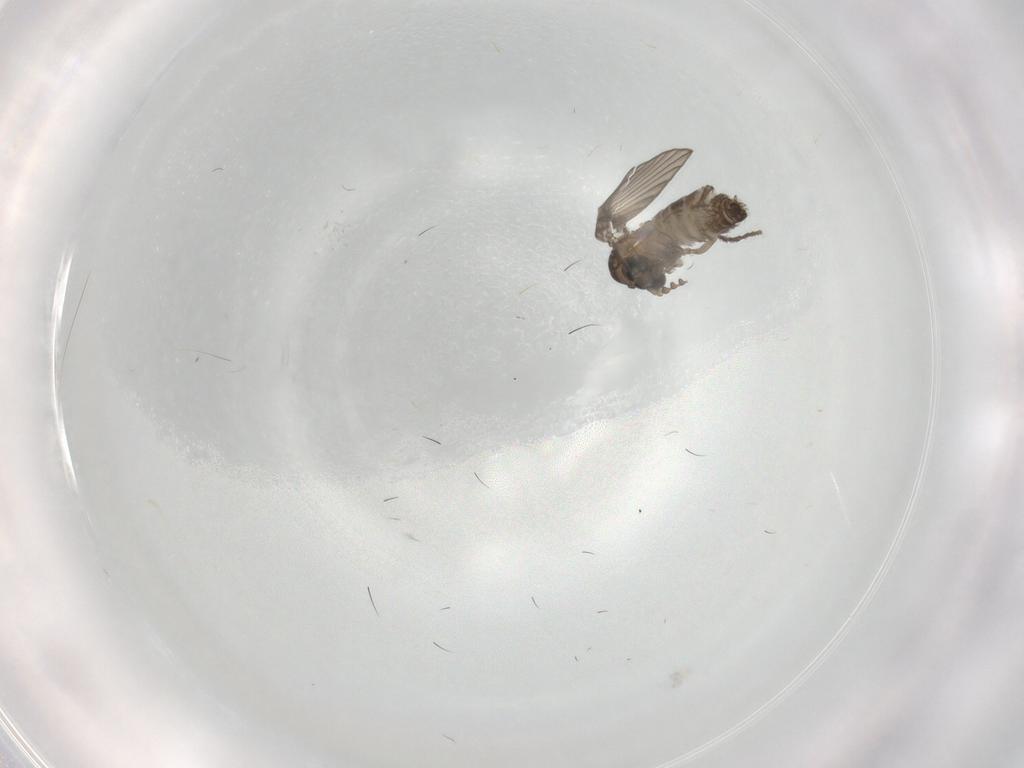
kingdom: Animalia
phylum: Arthropoda
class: Insecta
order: Diptera
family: Psychodidae
